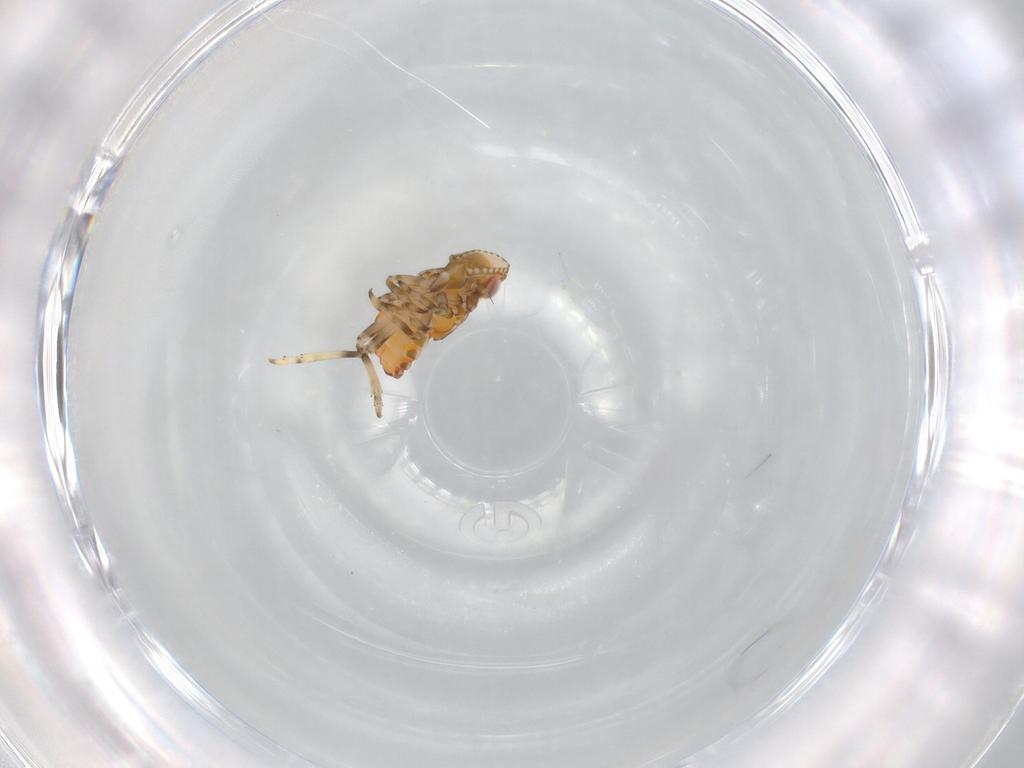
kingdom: Animalia
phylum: Arthropoda
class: Insecta
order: Hemiptera
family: Tropiduchidae
